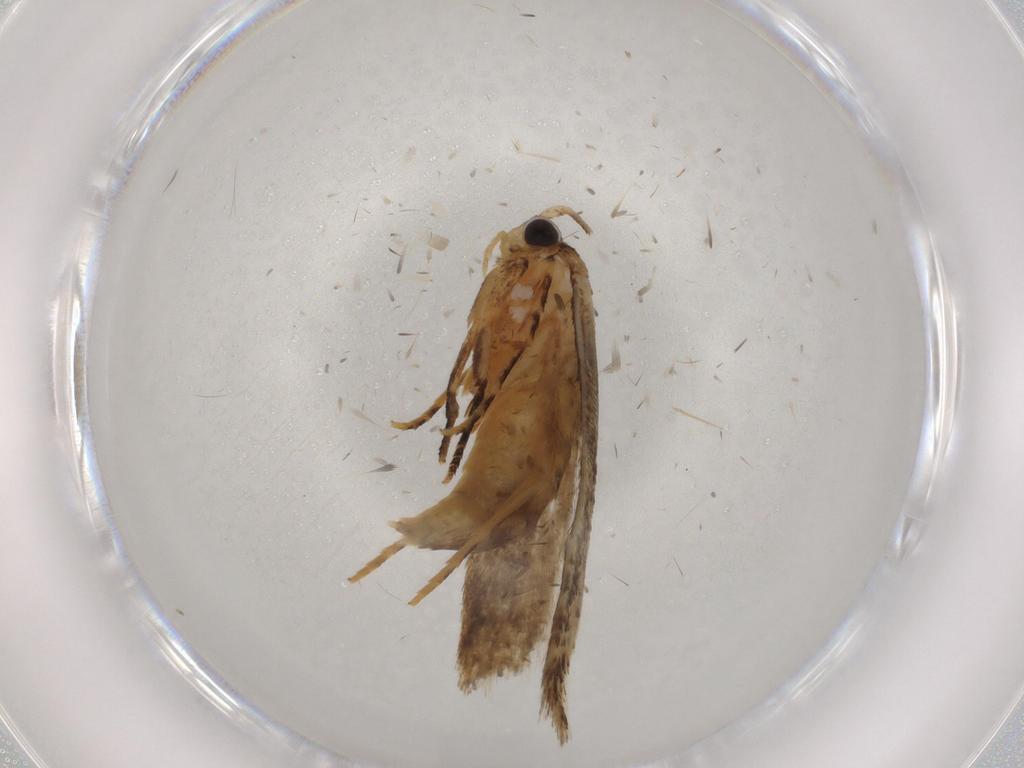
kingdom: Animalia
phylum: Arthropoda
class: Insecta
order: Lepidoptera
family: Tineidae
